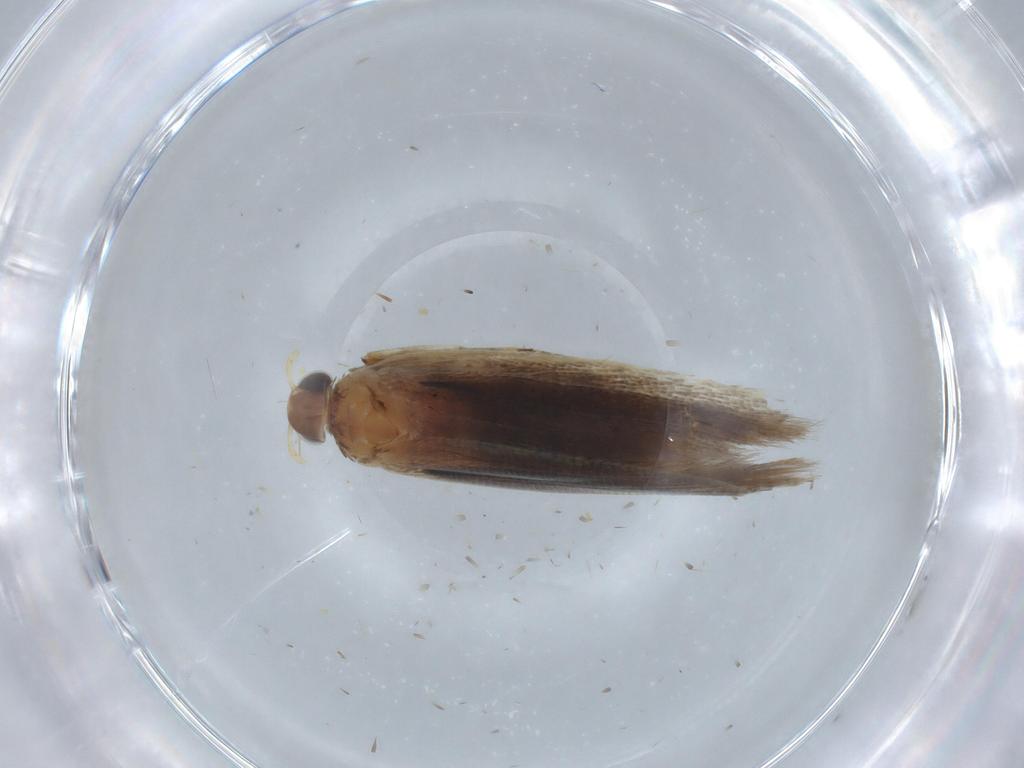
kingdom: Animalia
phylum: Arthropoda
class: Insecta
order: Lepidoptera
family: Gelechiidae
